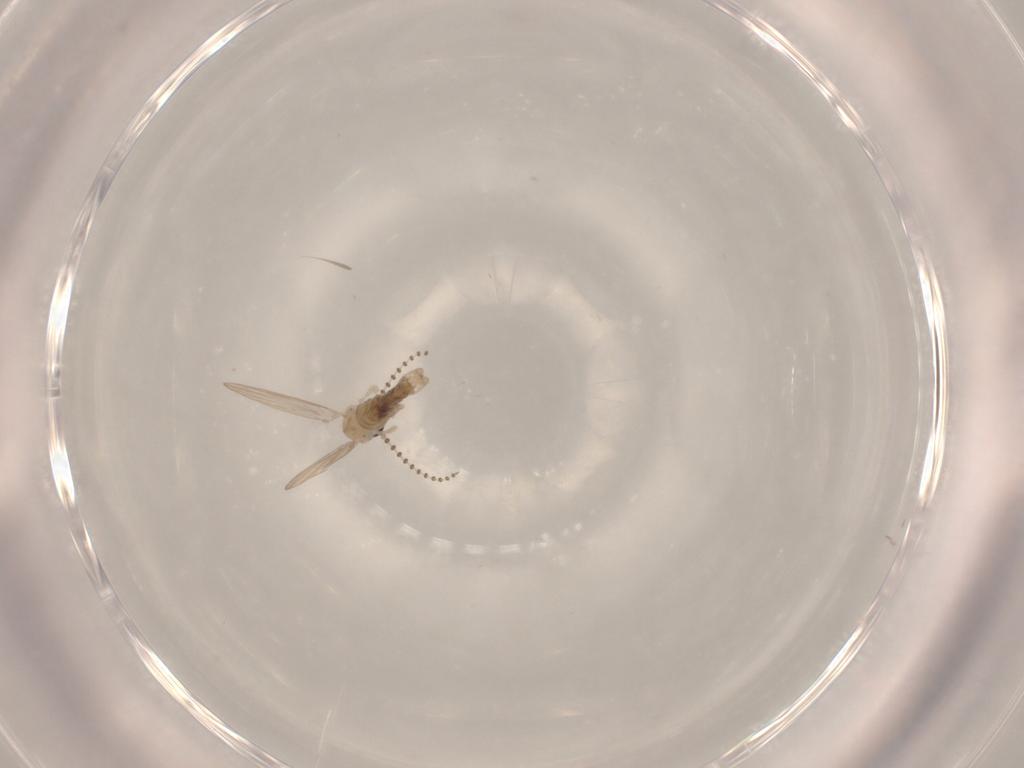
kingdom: Animalia
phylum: Arthropoda
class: Insecta
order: Diptera
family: Psychodidae
